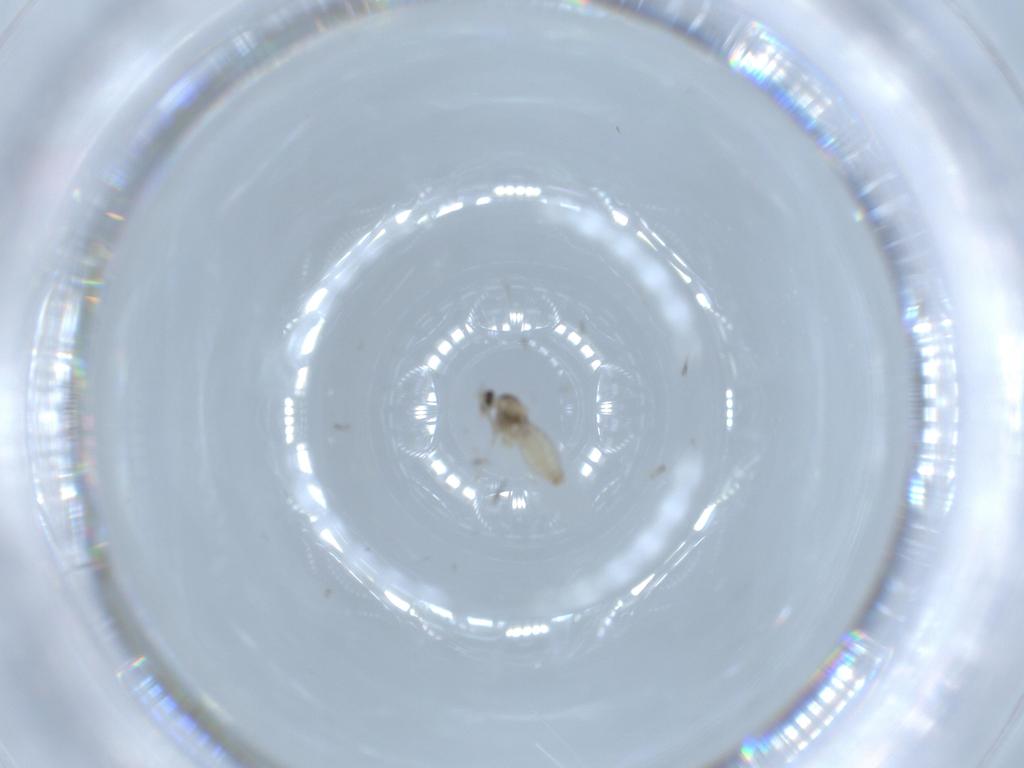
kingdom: Animalia
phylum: Arthropoda
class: Insecta
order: Diptera
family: Cecidomyiidae
